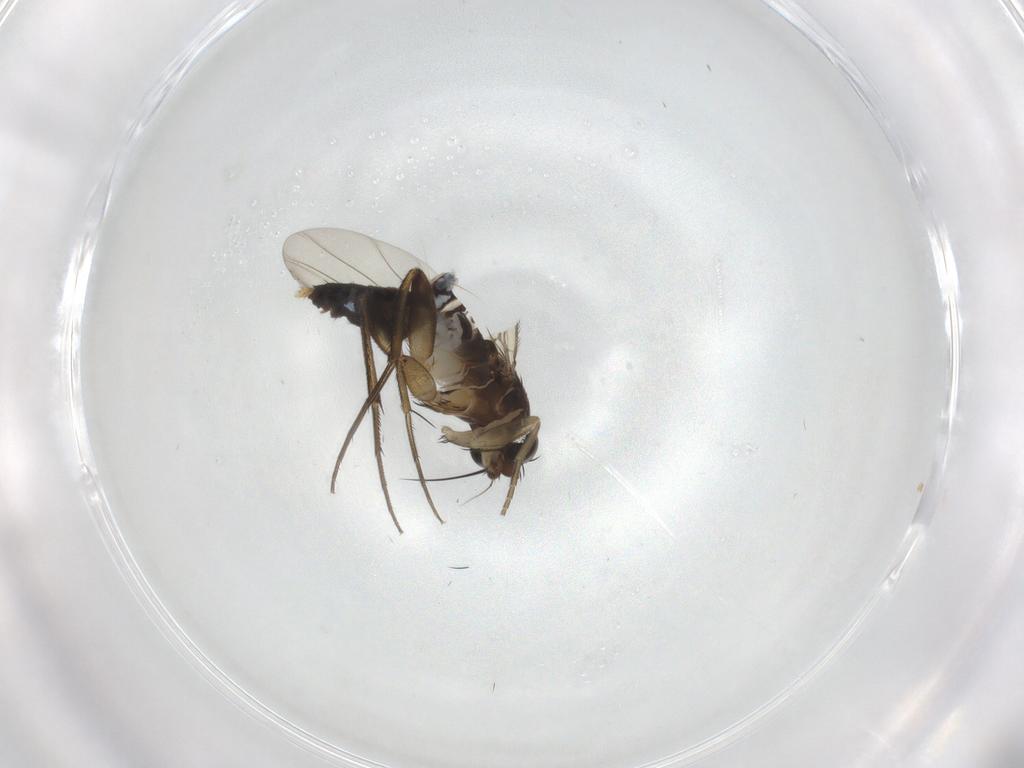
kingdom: Animalia
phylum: Arthropoda
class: Insecta
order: Diptera
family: Phoridae
